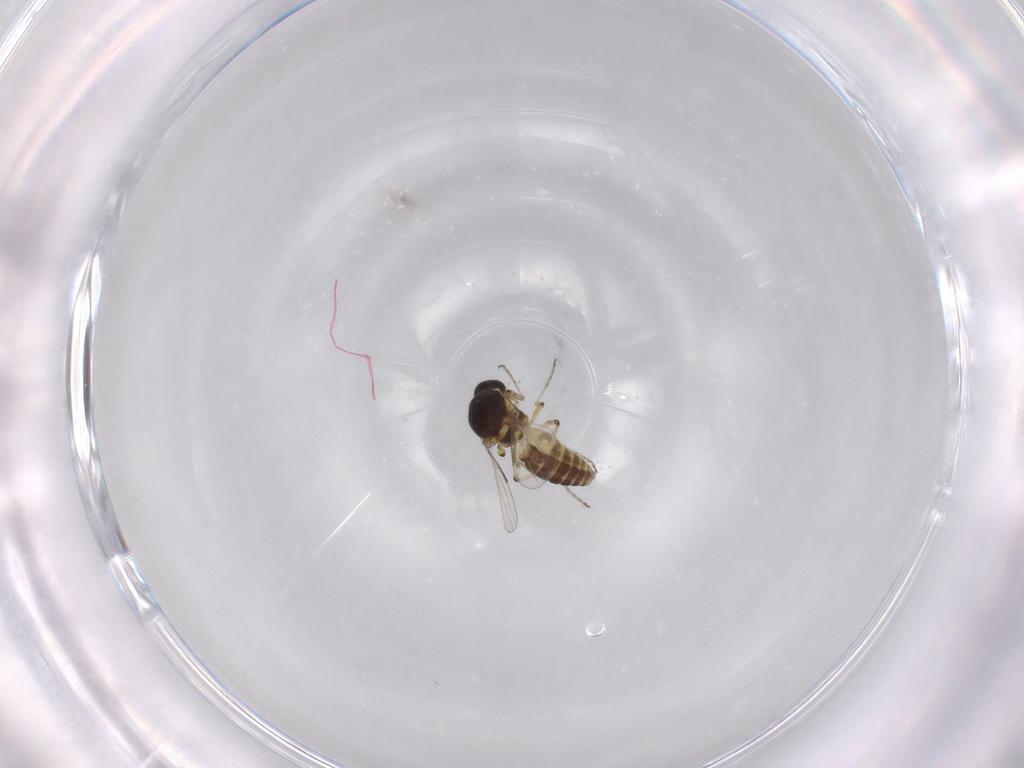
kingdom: Animalia
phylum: Arthropoda
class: Insecta
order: Diptera
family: Ceratopogonidae
